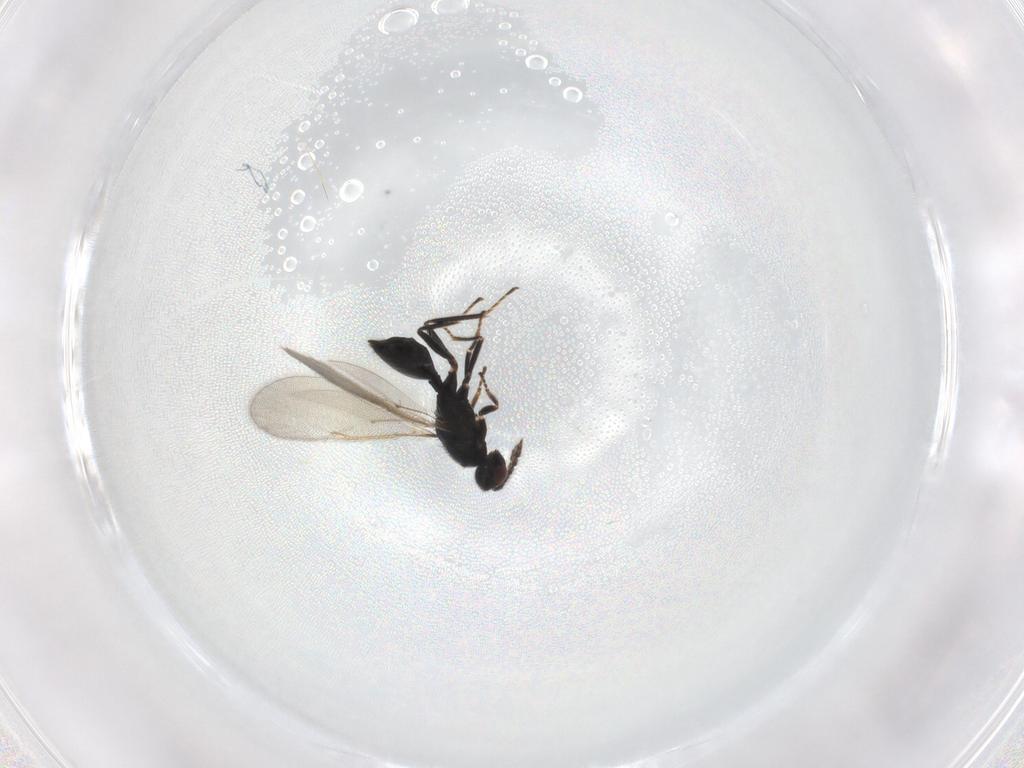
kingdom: Animalia
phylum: Arthropoda
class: Insecta
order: Hymenoptera
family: Eulophidae
